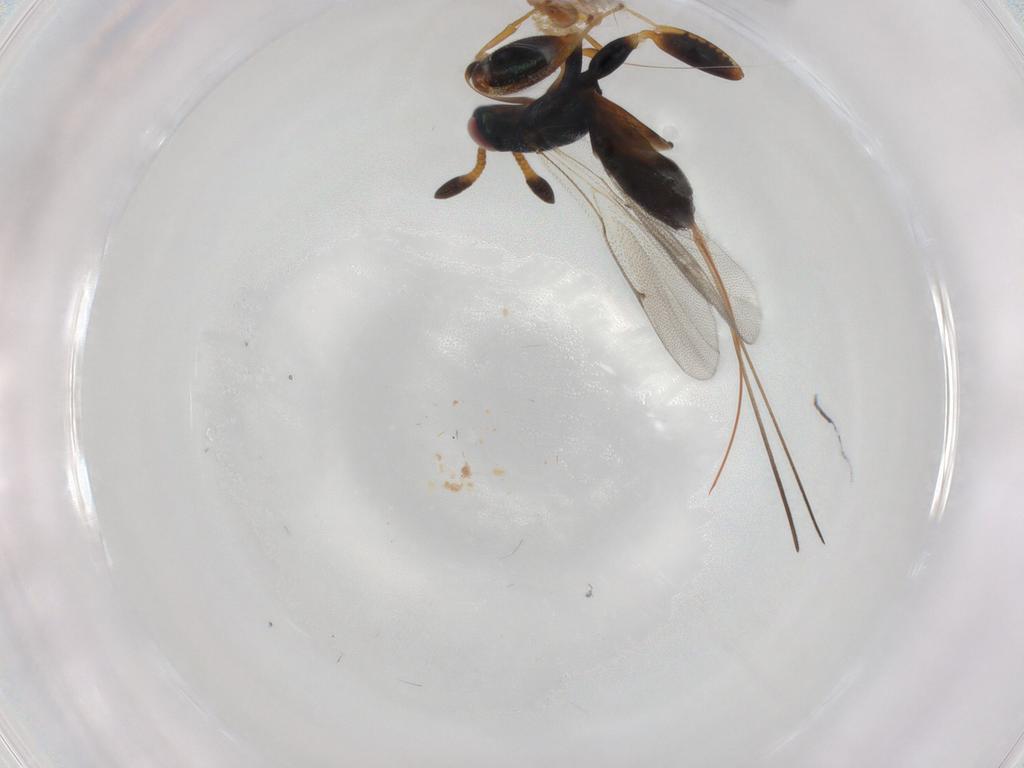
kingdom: Animalia
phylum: Arthropoda
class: Insecta
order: Hymenoptera
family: Torymidae
